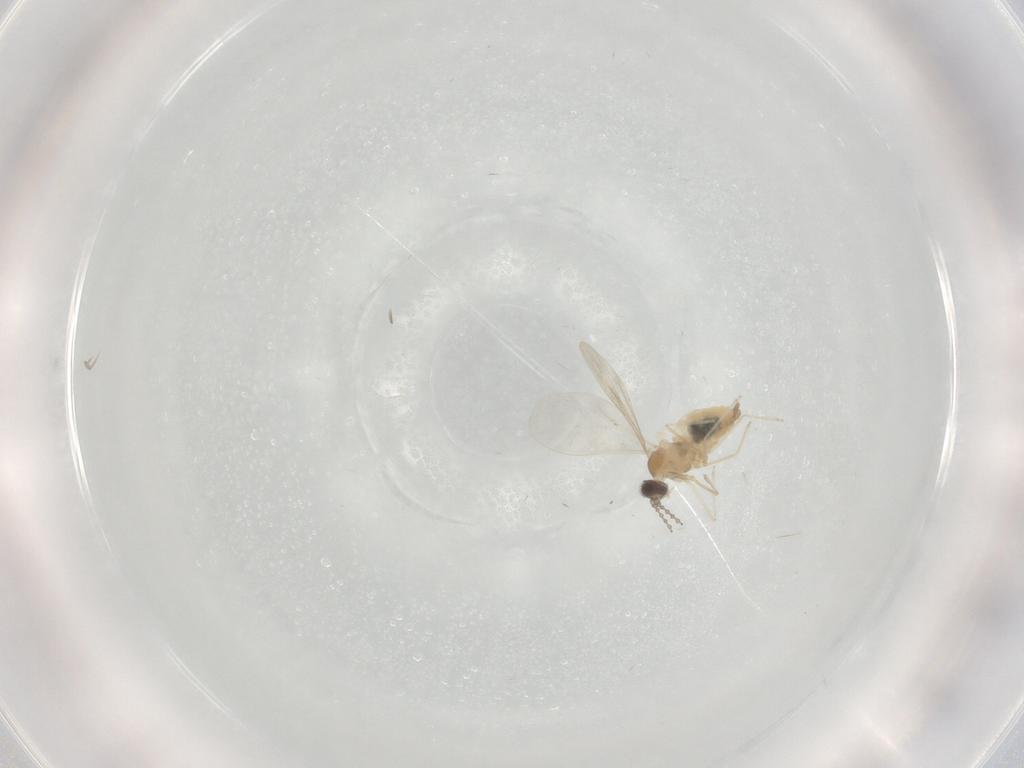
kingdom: Animalia
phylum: Arthropoda
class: Insecta
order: Diptera
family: Cecidomyiidae
